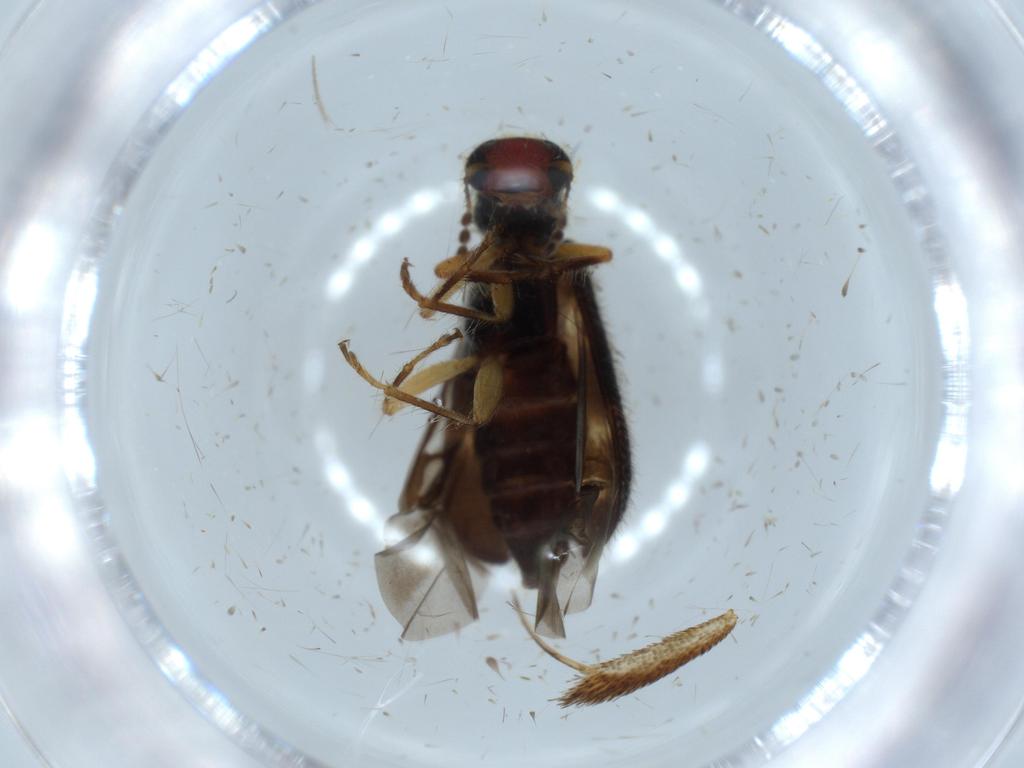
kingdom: Animalia
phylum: Arthropoda
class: Insecta
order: Coleoptera
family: Cleridae
